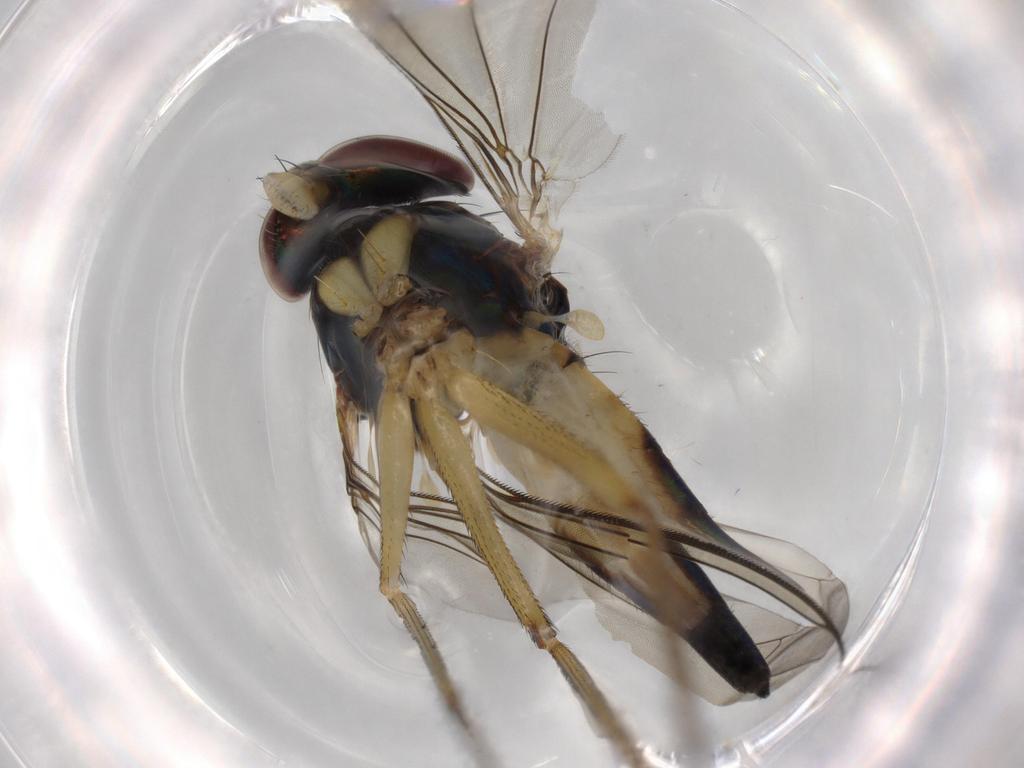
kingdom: Animalia
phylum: Arthropoda
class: Insecta
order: Diptera
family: Dolichopodidae
